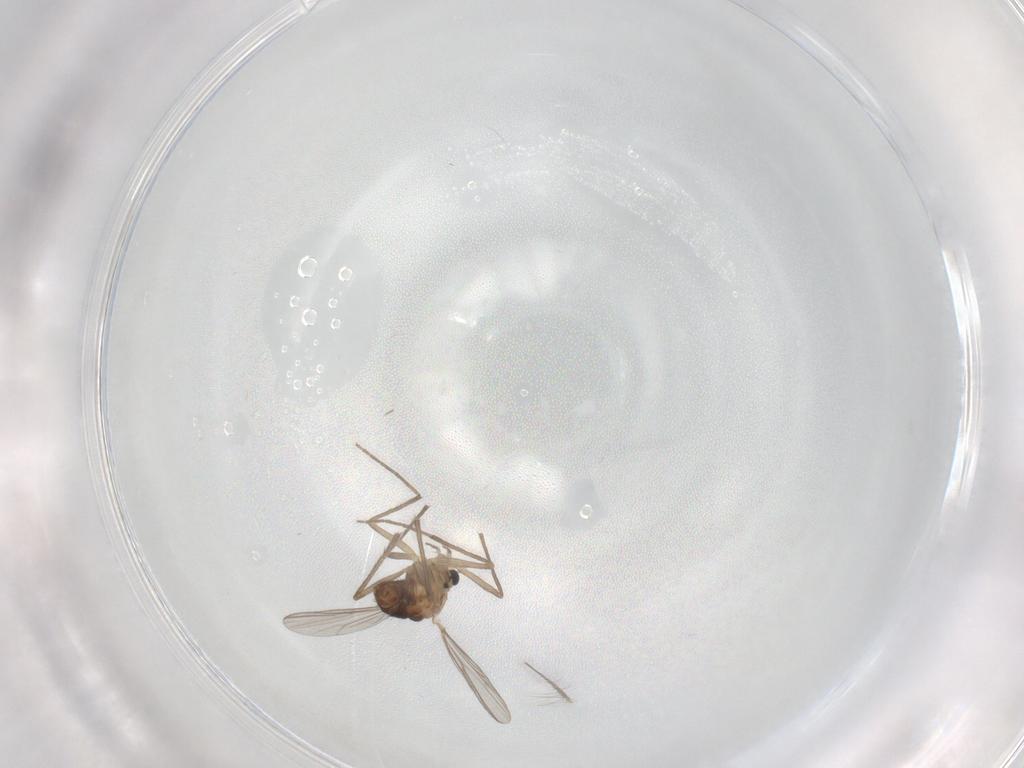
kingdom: Animalia
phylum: Arthropoda
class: Insecta
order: Diptera
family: Chironomidae
